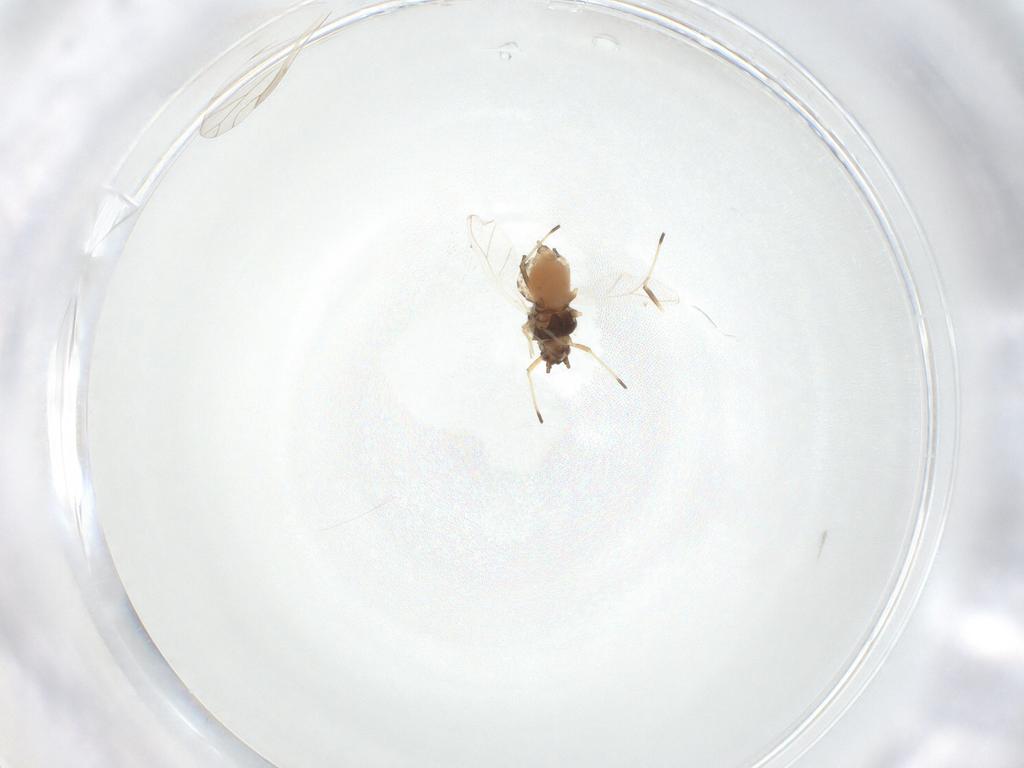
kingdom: Animalia
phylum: Arthropoda
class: Insecta
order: Hemiptera
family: Aphididae
